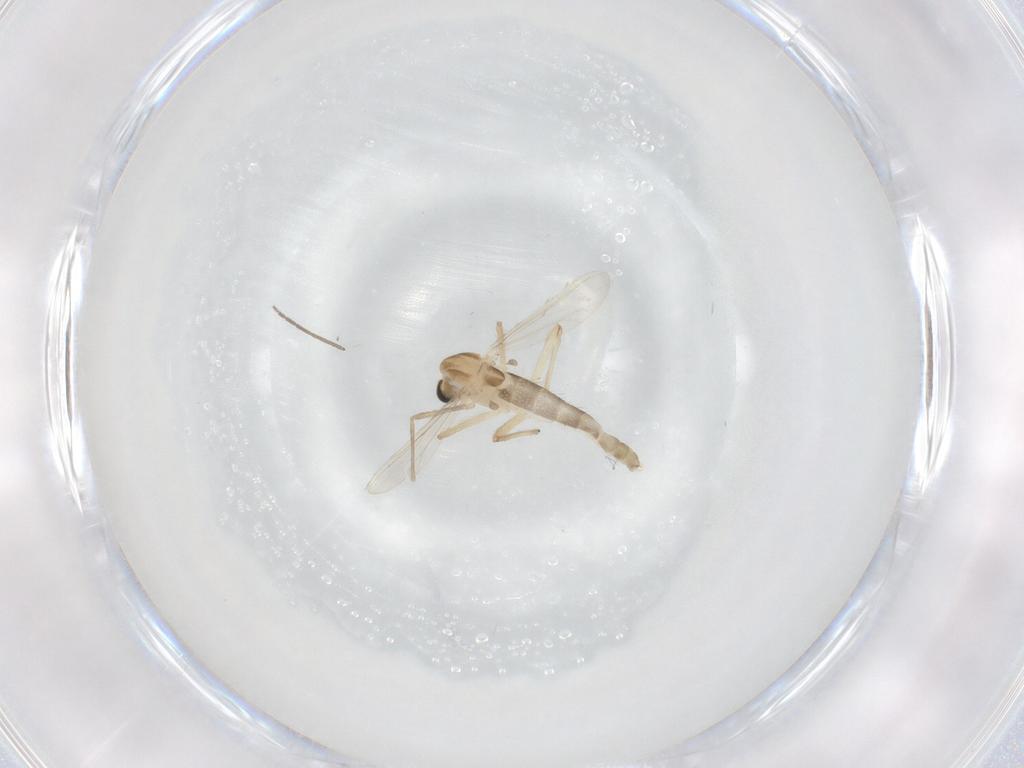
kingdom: Animalia
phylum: Arthropoda
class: Insecta
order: Diptera
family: Chironomidae
